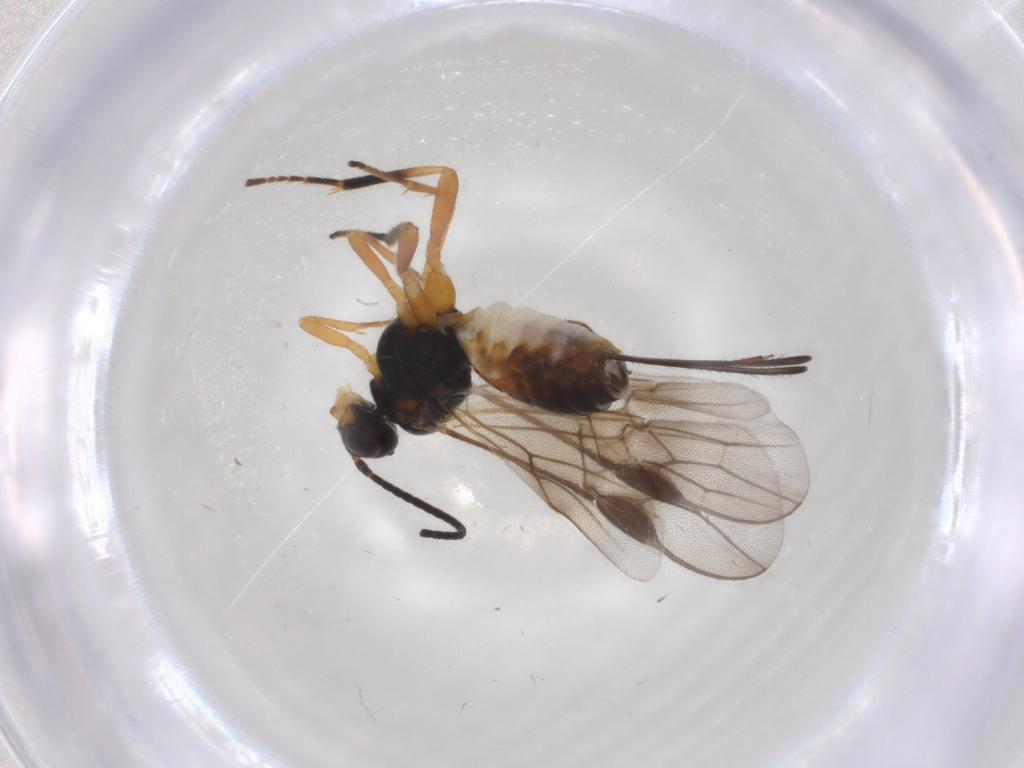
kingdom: Animalia
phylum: Arthropoda
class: Insecta
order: Hymenoptera
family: Braconidae
